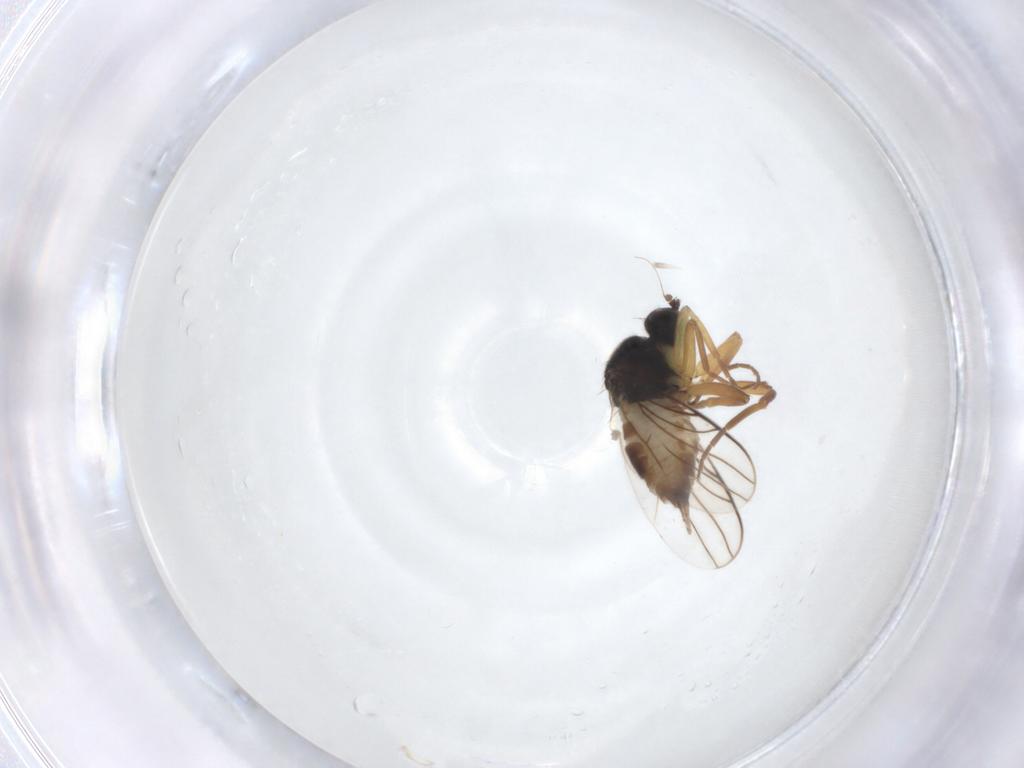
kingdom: Animalia
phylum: Arthropoda
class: Insecta
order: Diptera
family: Hybotidae
